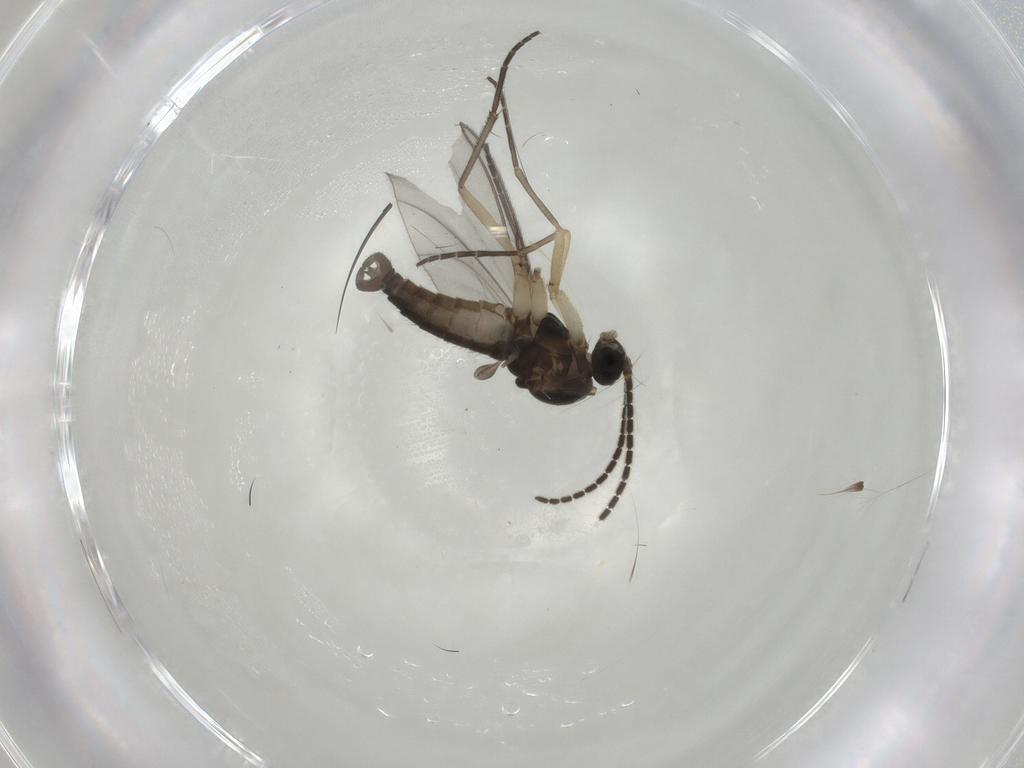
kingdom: Animalia
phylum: Arthropoda
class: Insecta
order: Diptera
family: Sciaridae
